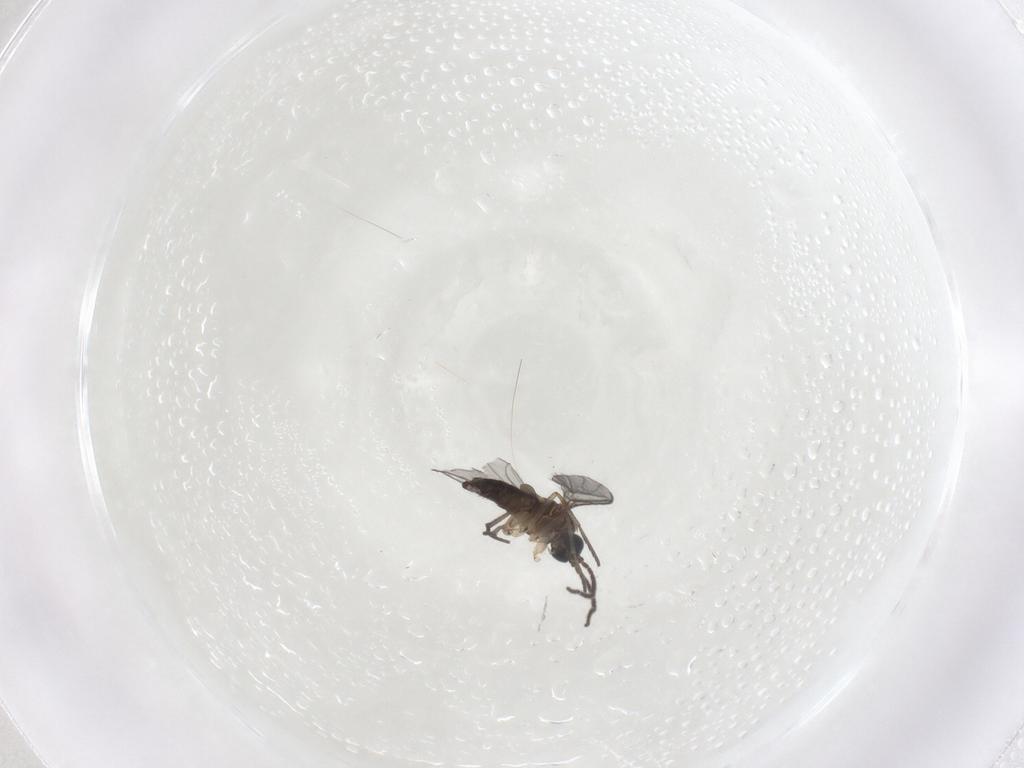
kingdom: Animalia
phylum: Arthropoda
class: Insecta
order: Diptera
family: Sciaridae
